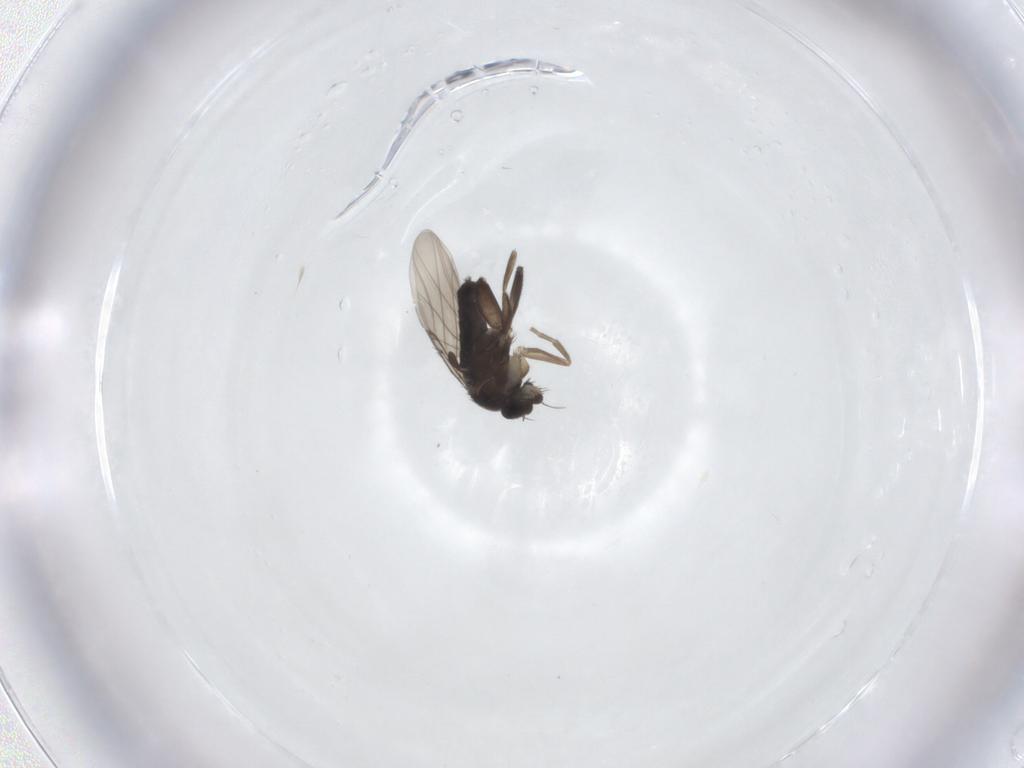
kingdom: Animalia
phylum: Arthropoda
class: Insecta
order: Diptera
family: Phoridae
